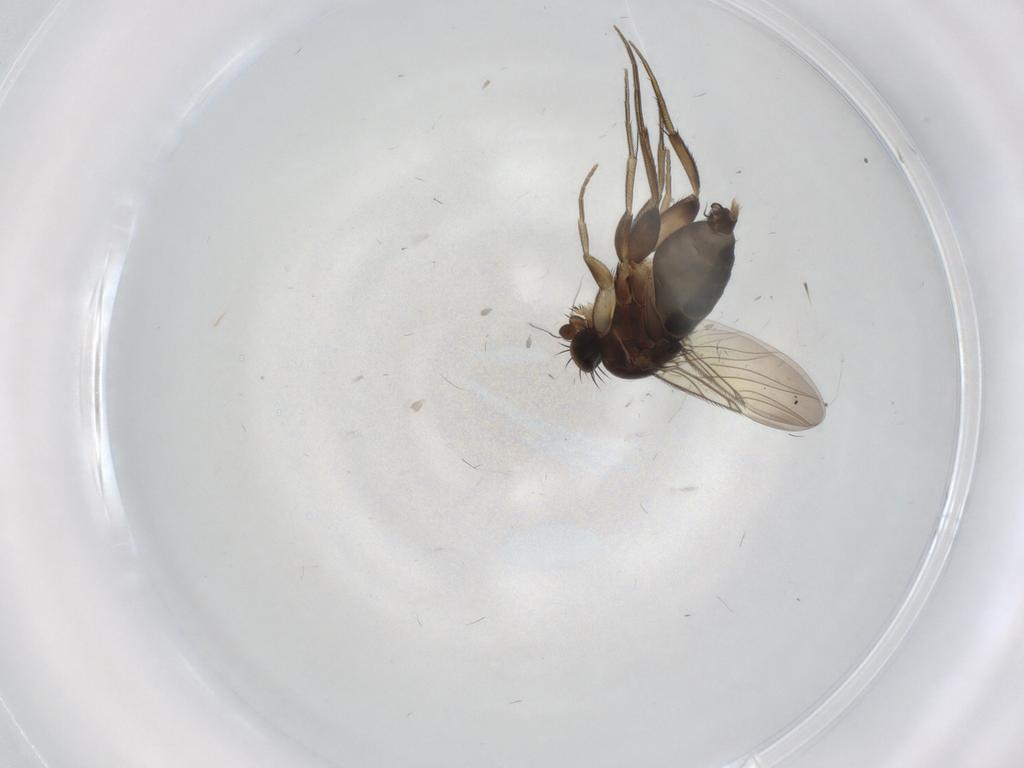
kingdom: Animalia
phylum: Arthropoda
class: Insecta
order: Diptera
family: Phoridae
